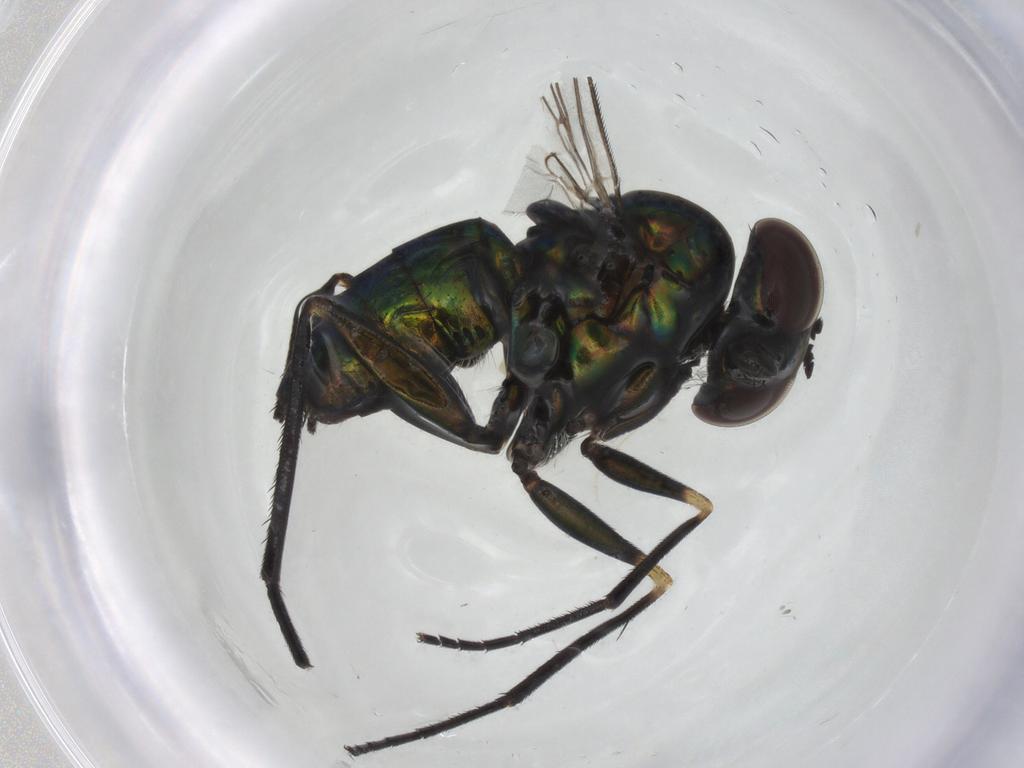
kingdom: Animalia
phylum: Arthropoda
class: Insecta
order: Diptera
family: Dolichopodidae
